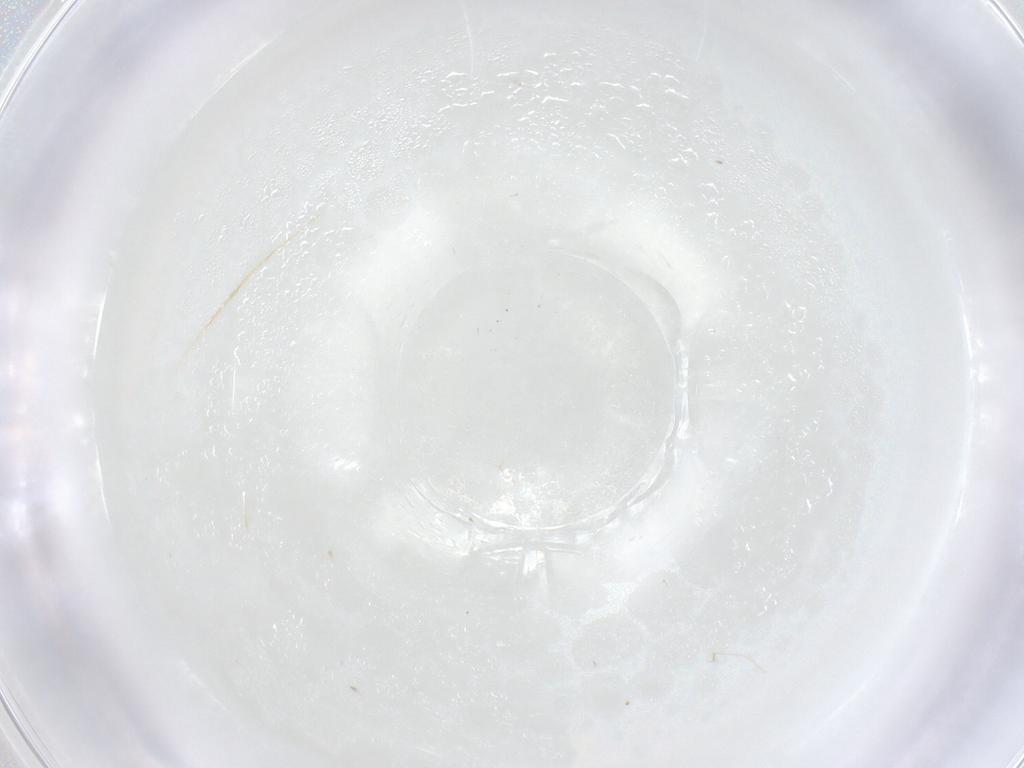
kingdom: Animalia
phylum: Arthropoda
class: Insecta
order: Hemiptera
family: Phylloxeridae
